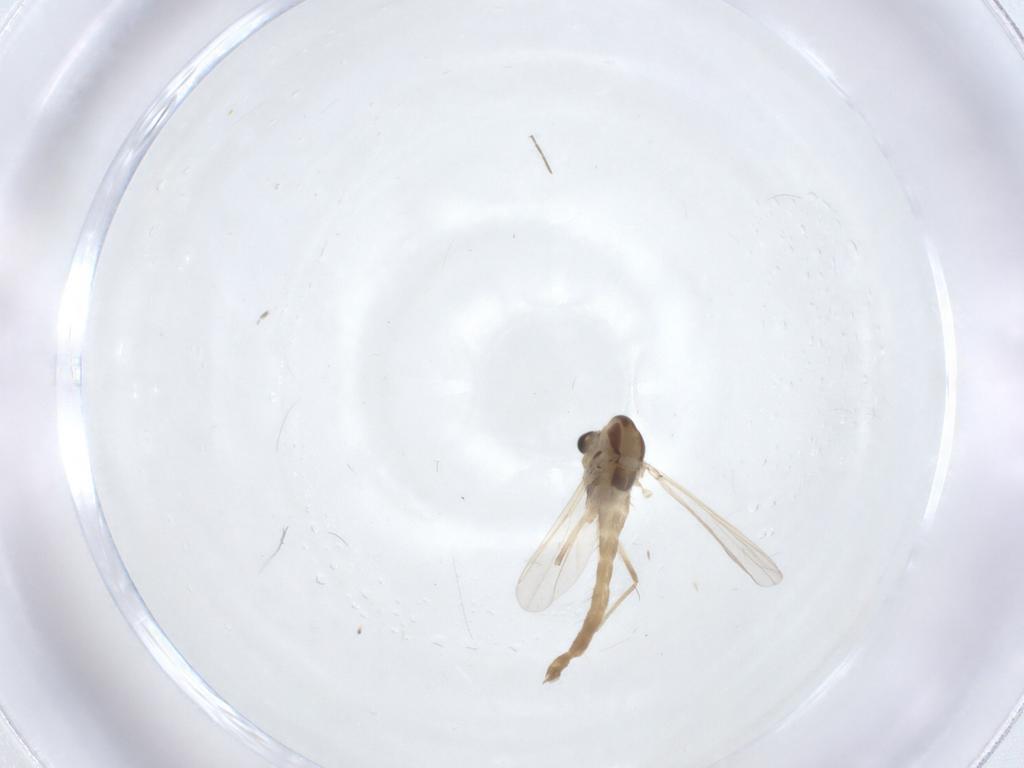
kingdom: Animalia
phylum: Arthropoda
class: Insecta
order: Diptera
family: Chironomidae
